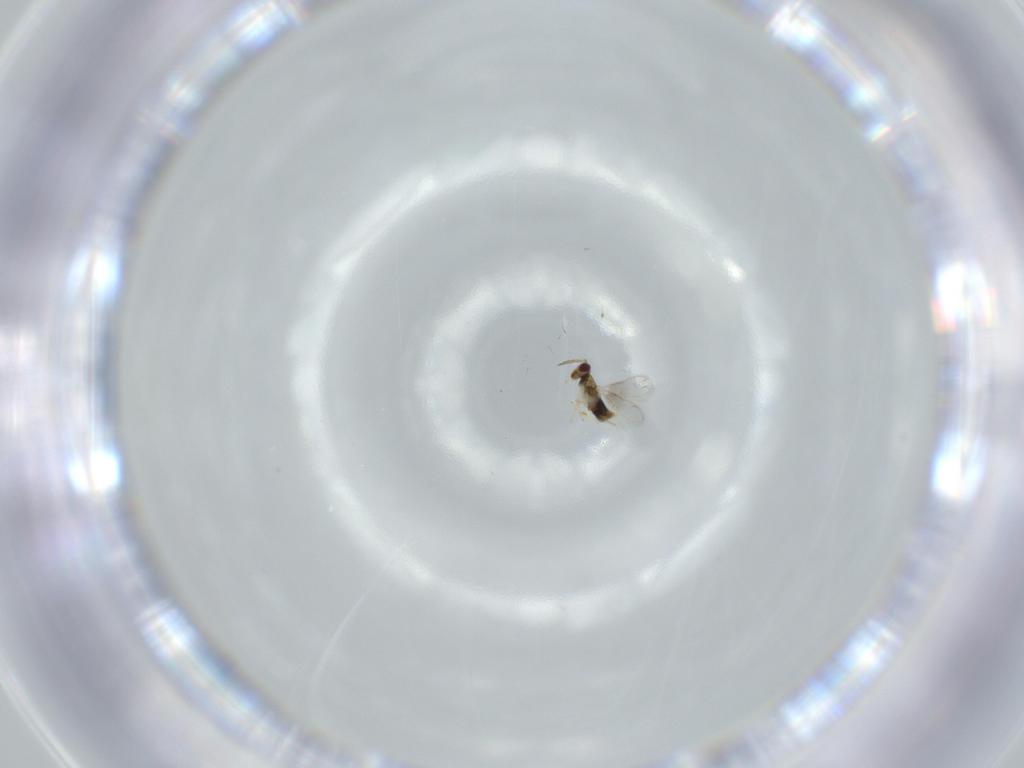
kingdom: Animalia
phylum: Arthropoda
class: Insecta
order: Hymenoptera
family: Aphelinidae
